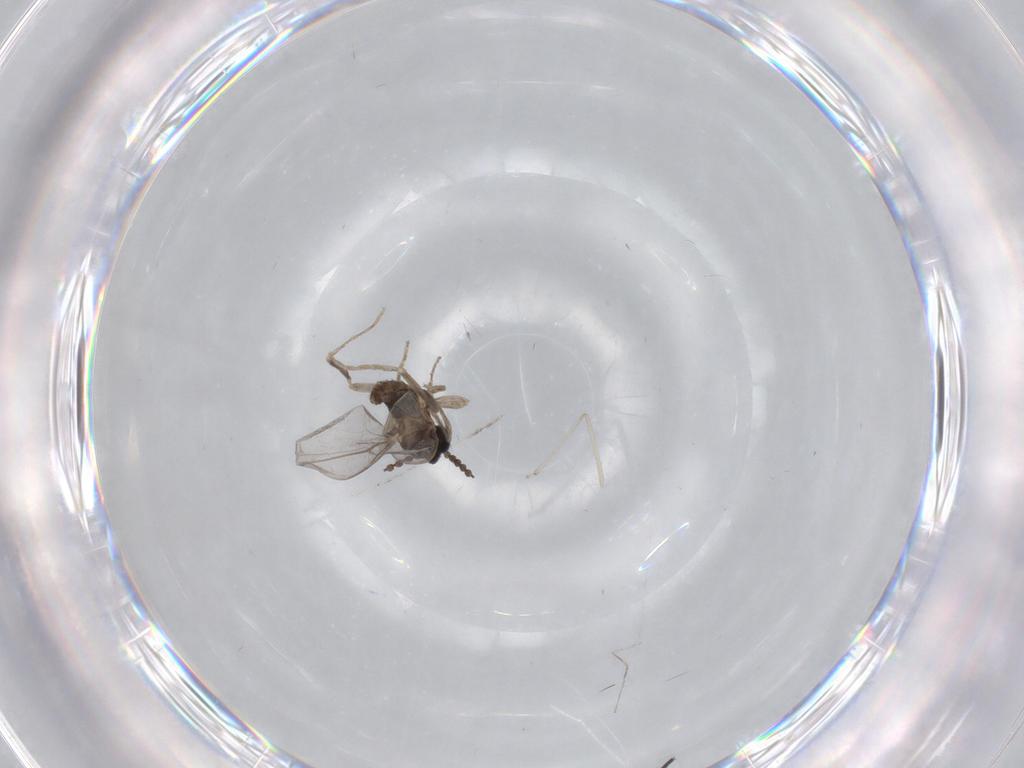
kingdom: Animalia
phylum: Arthropoda
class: Insecta
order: Diptera
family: Cecidomyiidae
